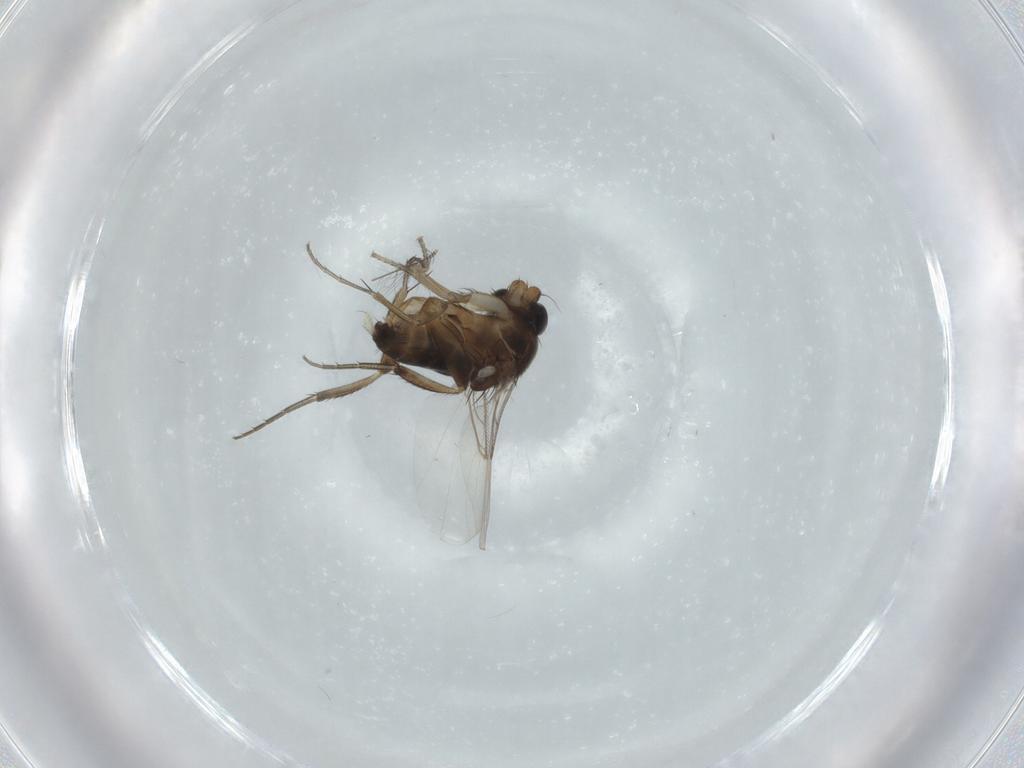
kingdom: Animalia
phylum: Arthropoda
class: Insecta
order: Diptera
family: Phoridae
